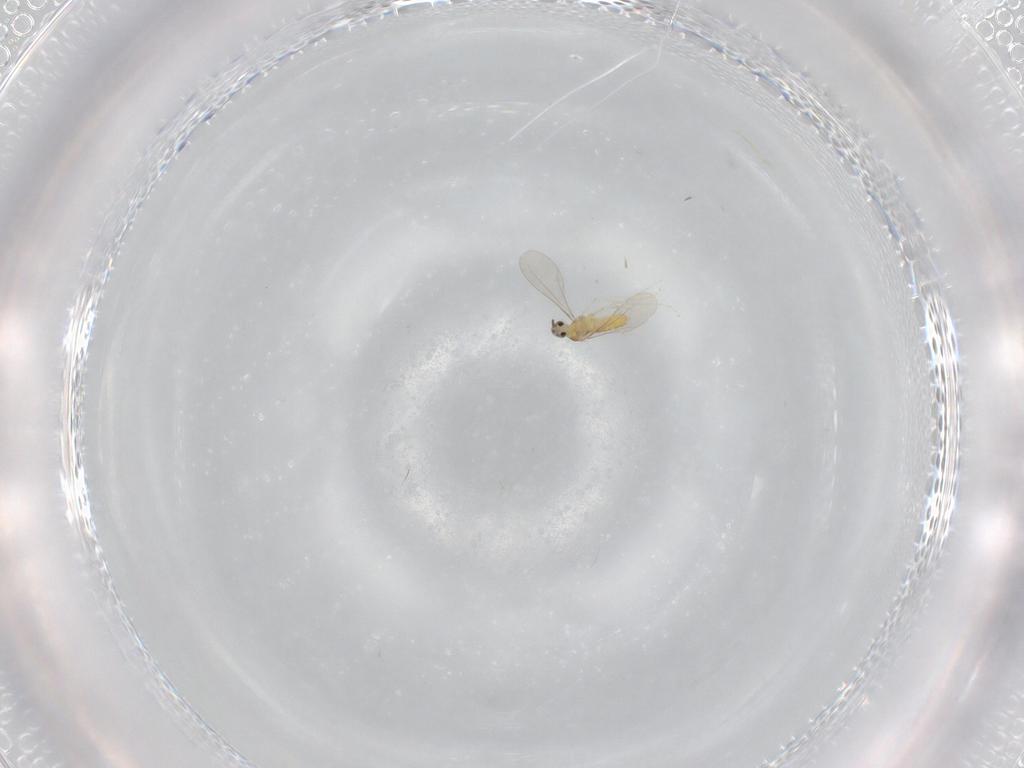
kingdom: Animalia
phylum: Arthropoda
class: Insecta
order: Diptera
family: Cecidomyiidae
